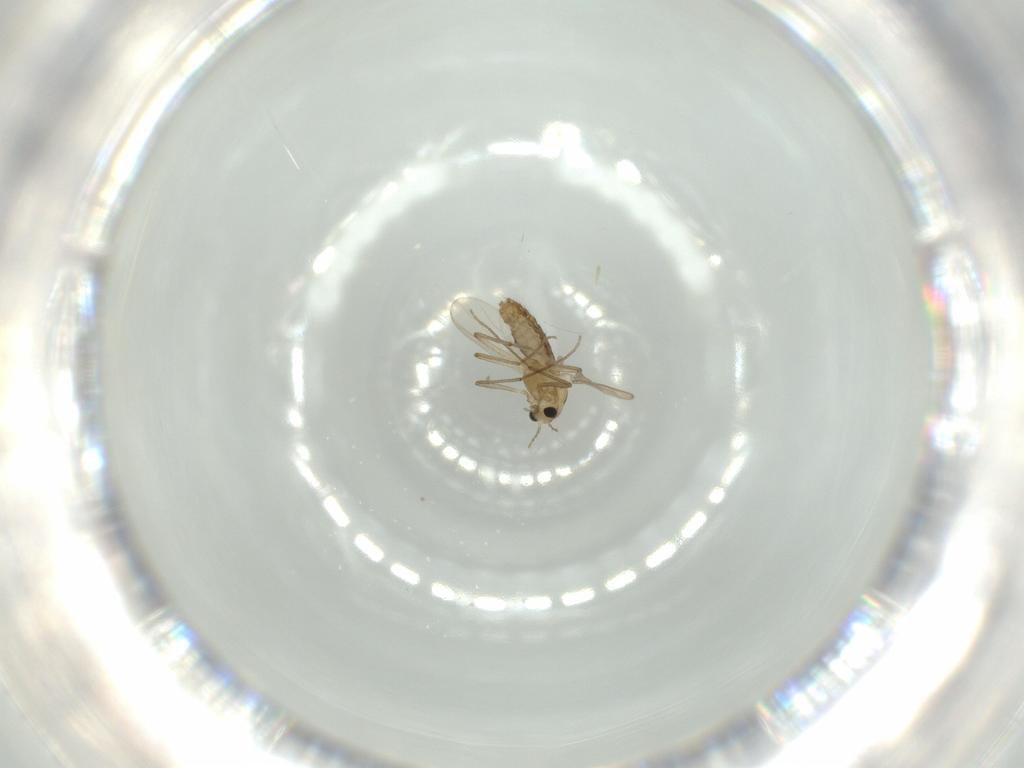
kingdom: Animalia
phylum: Arthropoda
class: Insecta
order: Diptera
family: Chironomidae
